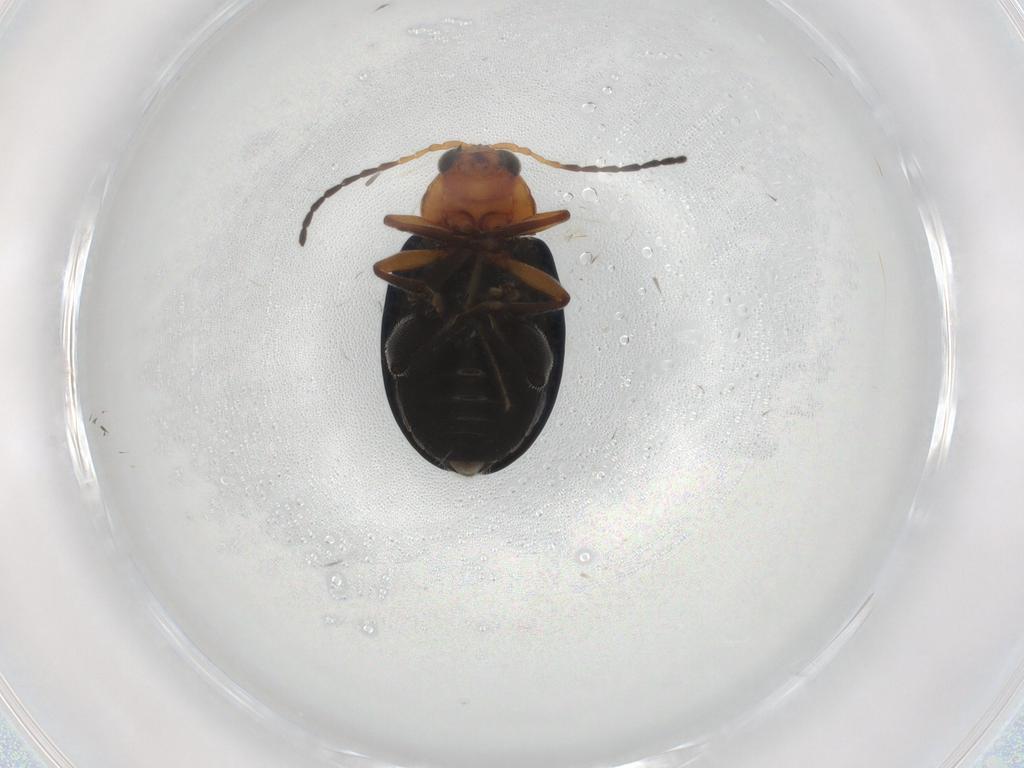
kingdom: Animalia
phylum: Arthropoda
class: Insecta
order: Coleoptera
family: Chrysomelidae
